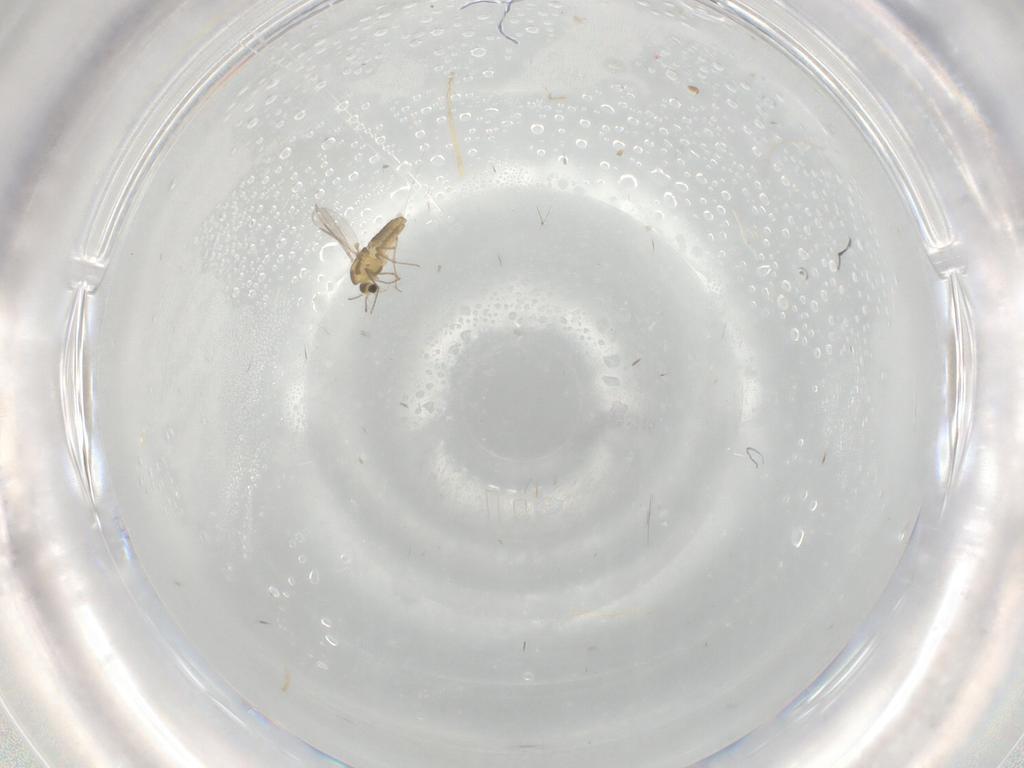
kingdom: Animalia
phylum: Arthropoda
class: Insecta
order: Diptera
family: Chironomidae
